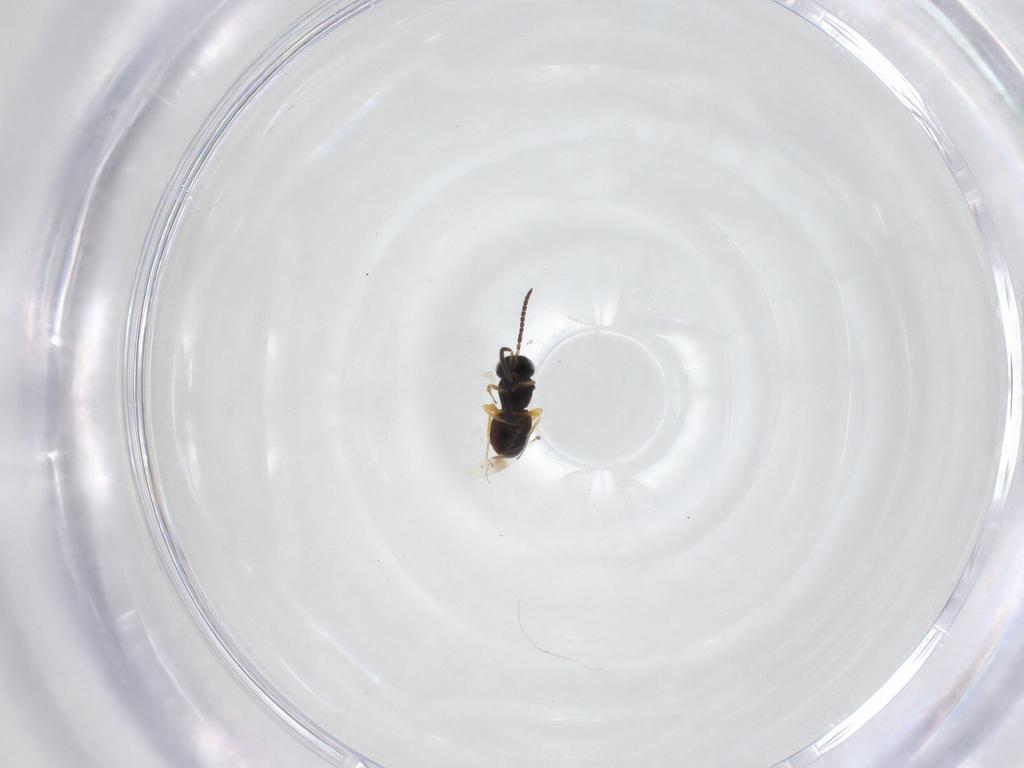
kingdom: Animalia
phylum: Arthropoda
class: Insecta
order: Hymenoptera
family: Scelionidae
